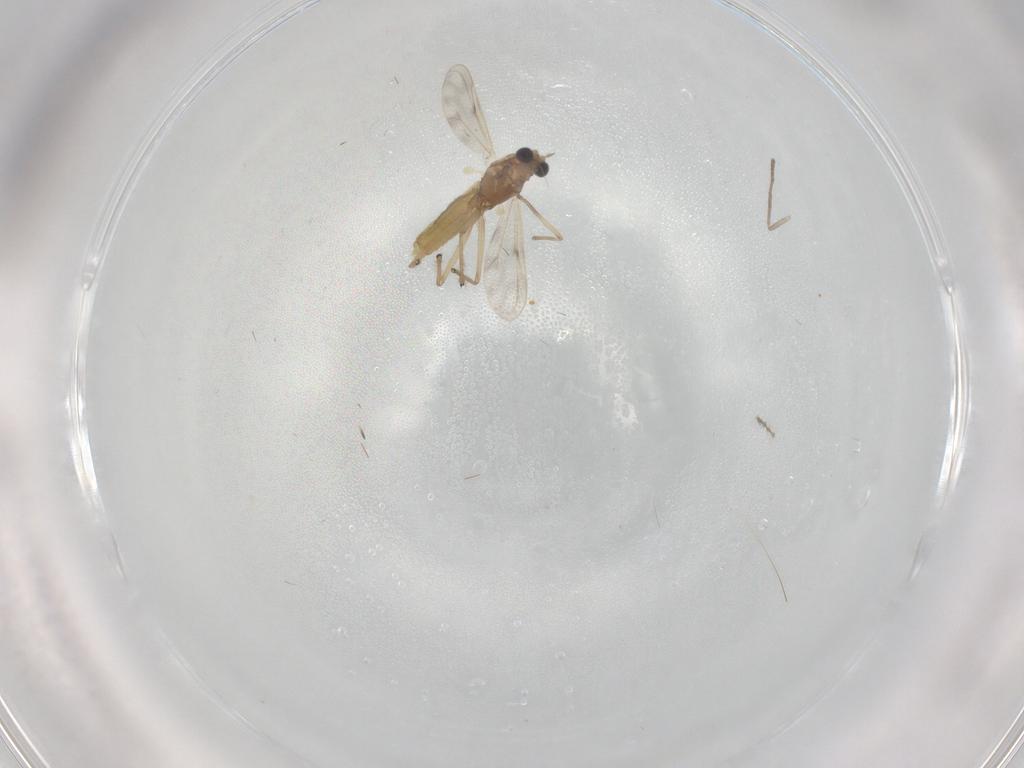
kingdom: Animalia
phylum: Arthropoda
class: Insecta
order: Diptera
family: Chironomidae
